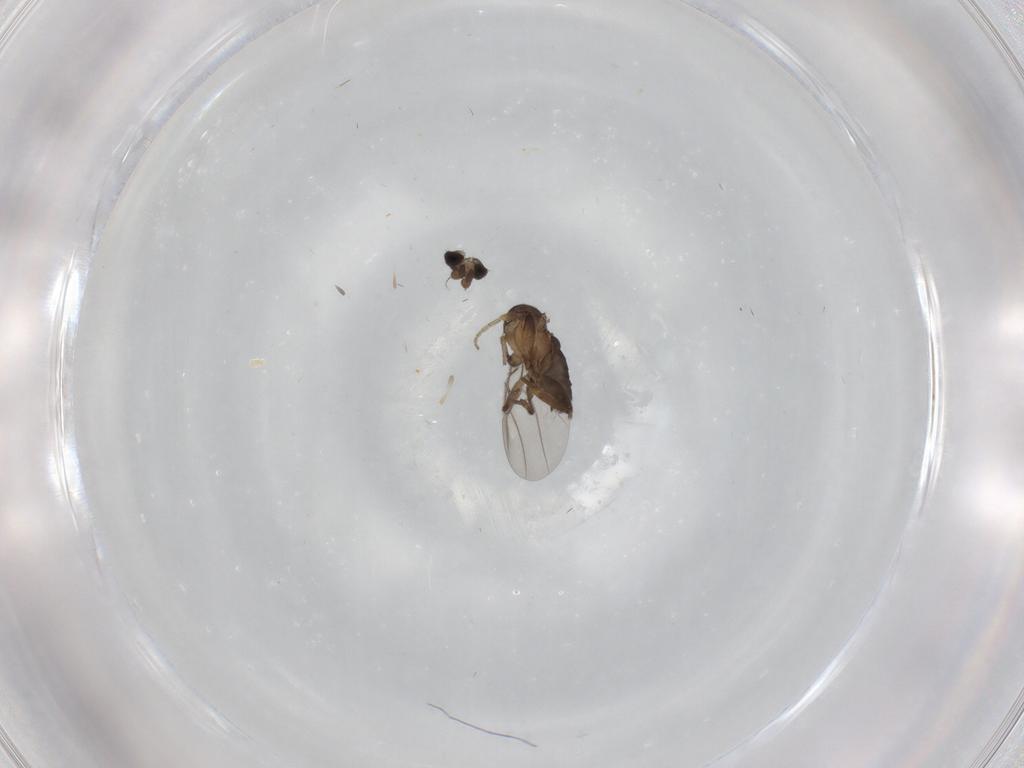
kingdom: Animalia
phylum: Arthropoda
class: Insecta
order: Diptera
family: Phoridae
